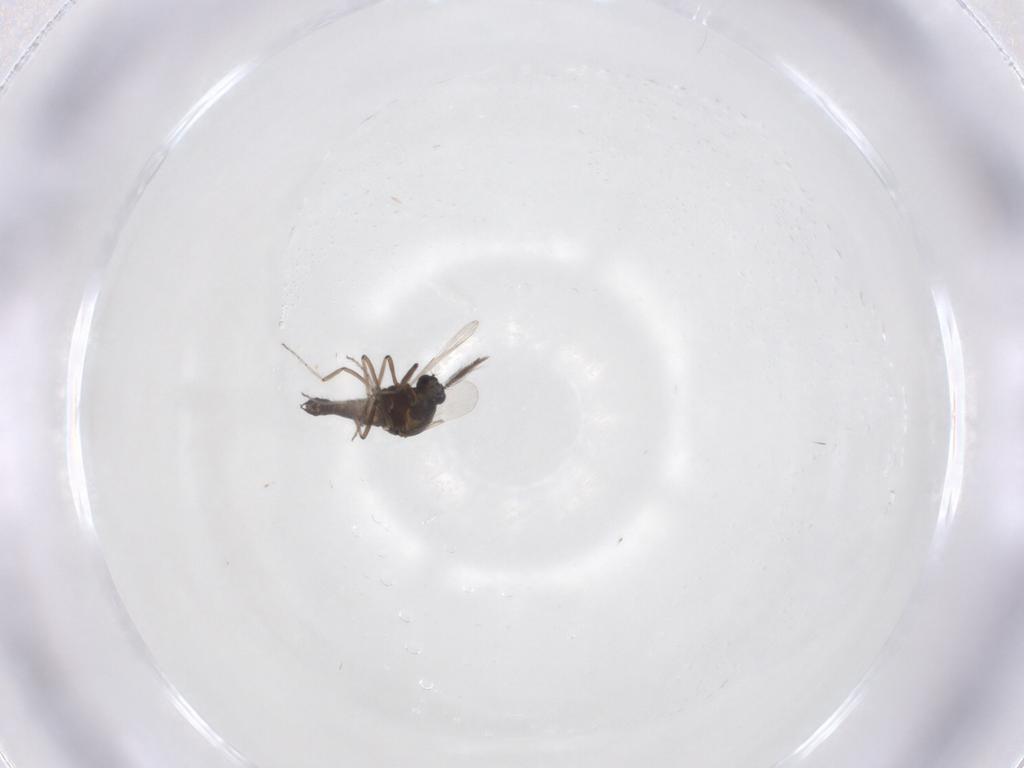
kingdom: Animalia
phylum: Arthropoda
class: Insecta
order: Diptera
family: Ceratopogonidae
